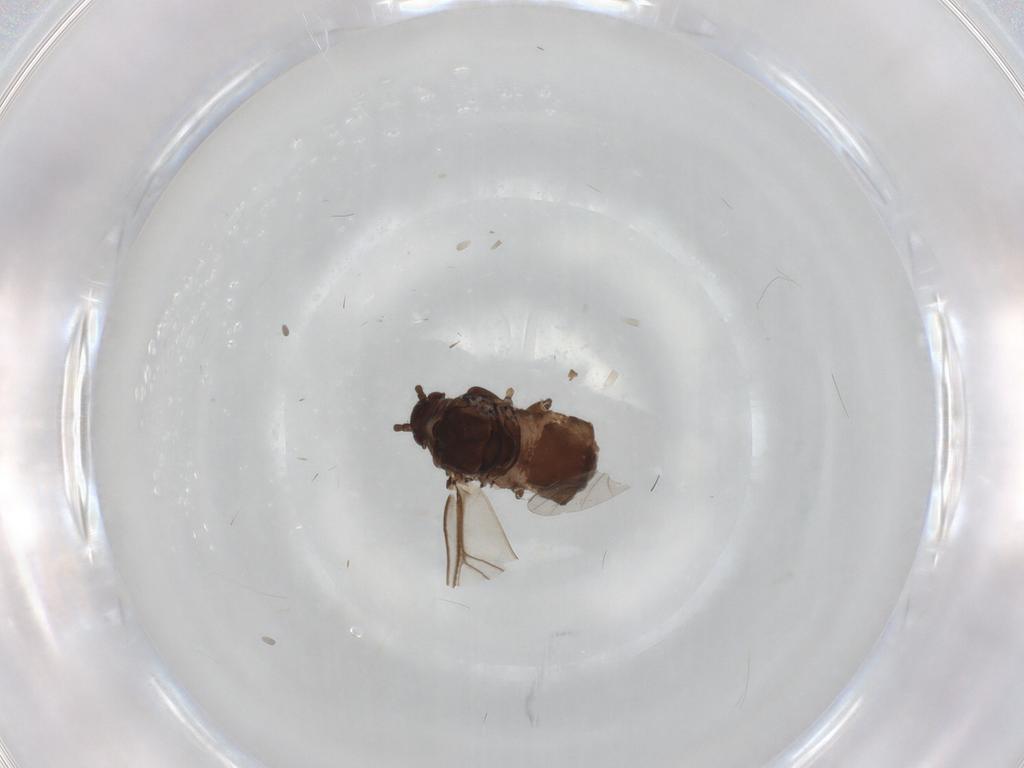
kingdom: Animalia
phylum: Arthropoda
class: Insecta
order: Hemiptera
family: Aphididae
